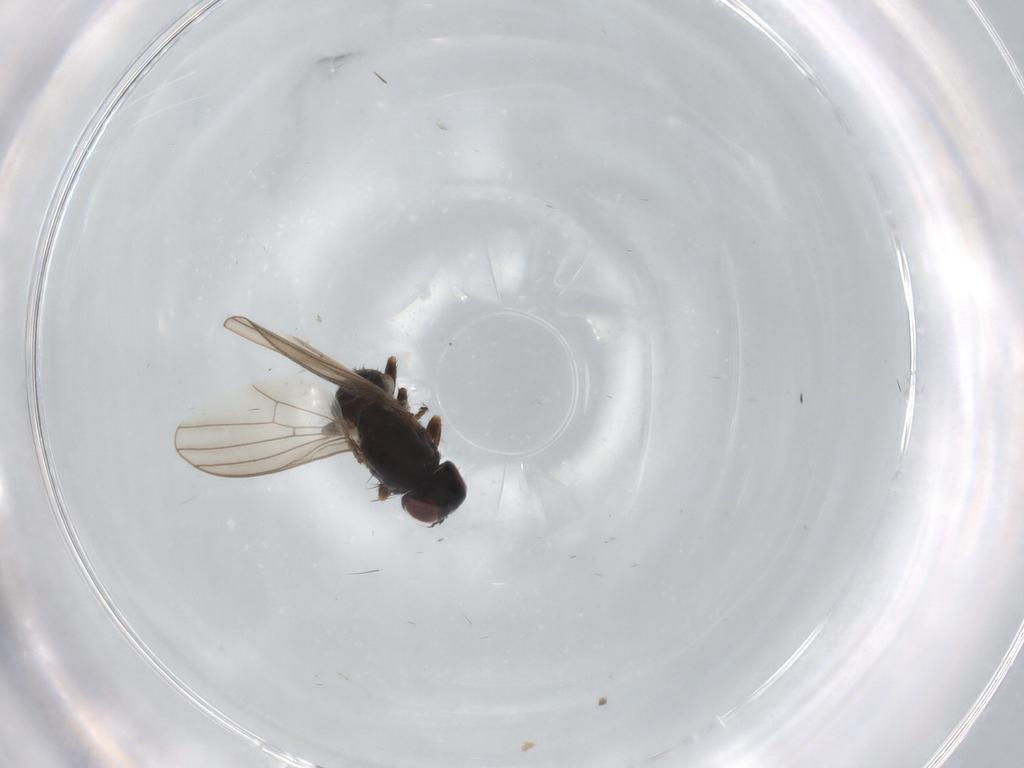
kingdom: Animalia
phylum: Arthropoda
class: Insecta
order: Diptera
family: Chamaemyiidae
